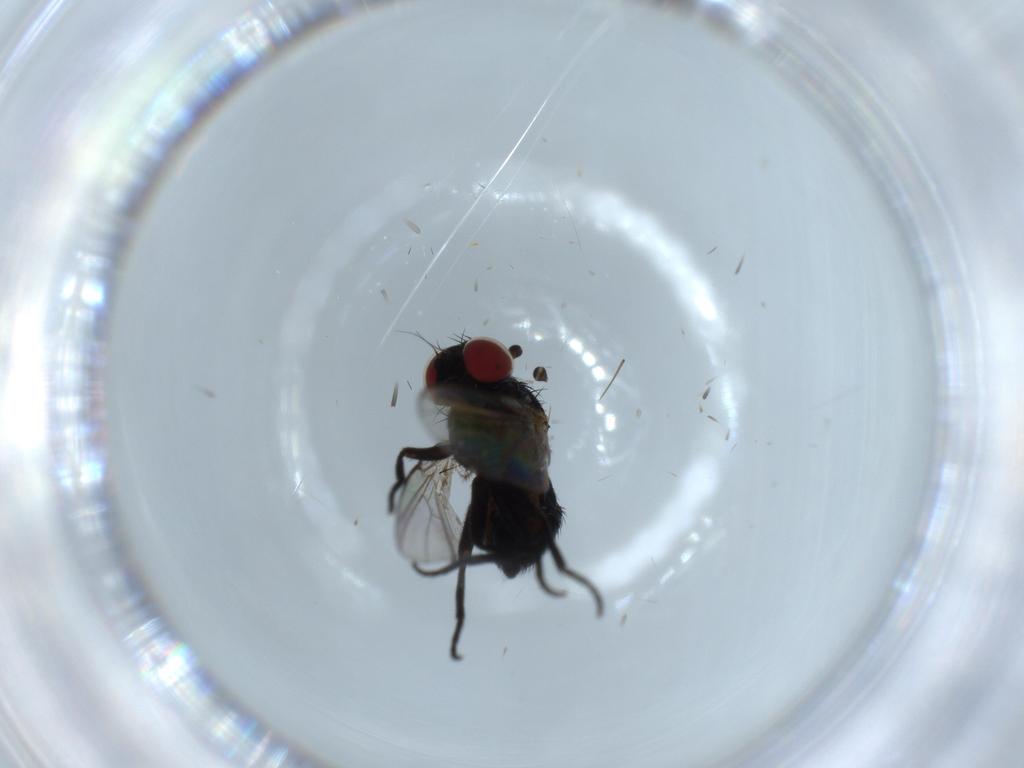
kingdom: Animalia
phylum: Arthropoda
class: Insecta
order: Diptera
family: Agromyzidae
